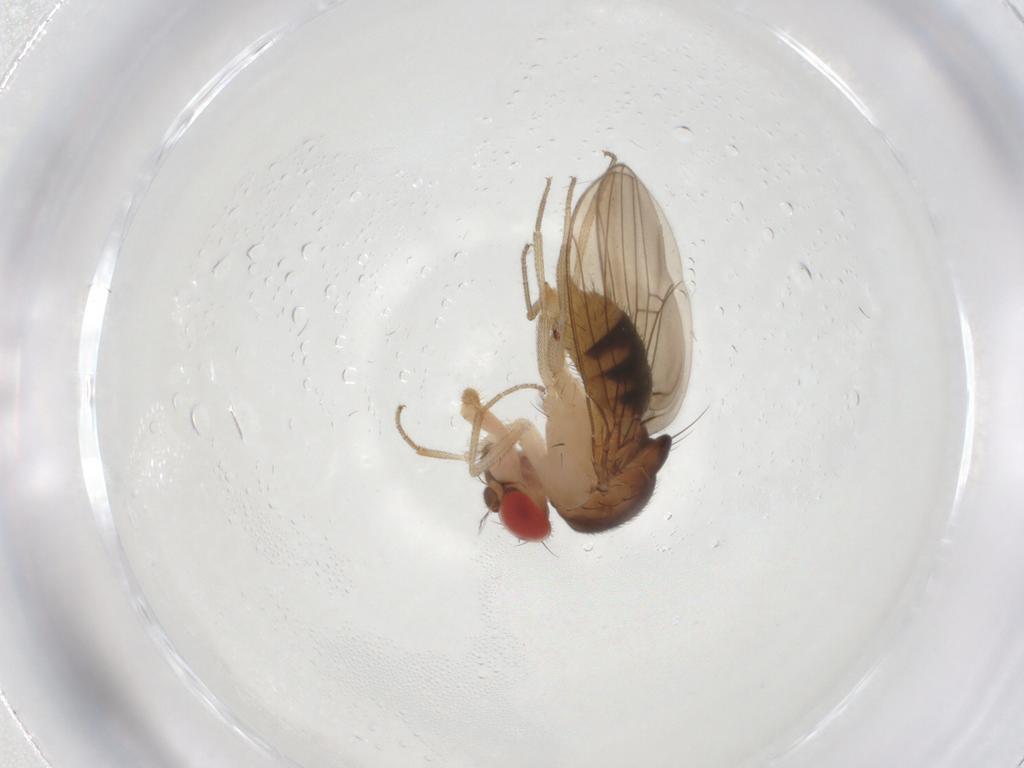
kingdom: Animalia
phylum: Arthropoda
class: Insecta
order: Diptera
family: Drosophilidae
